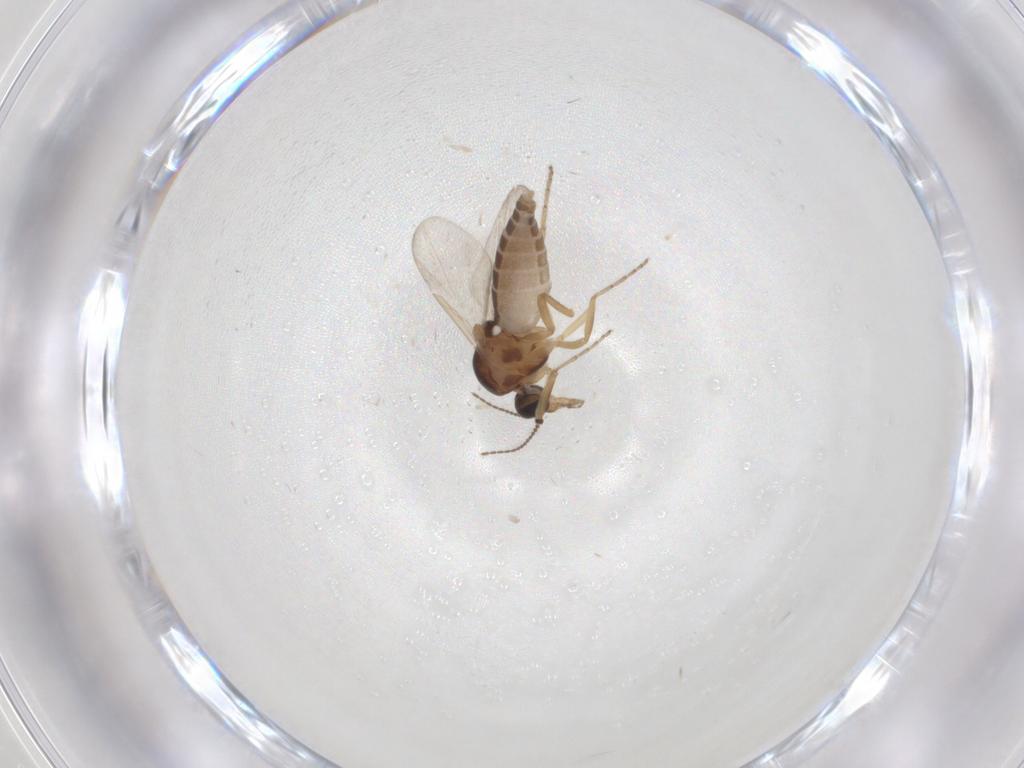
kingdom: Animalia
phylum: Arthropoda
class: Insecta
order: Diptera
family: Ceratopogonidae
